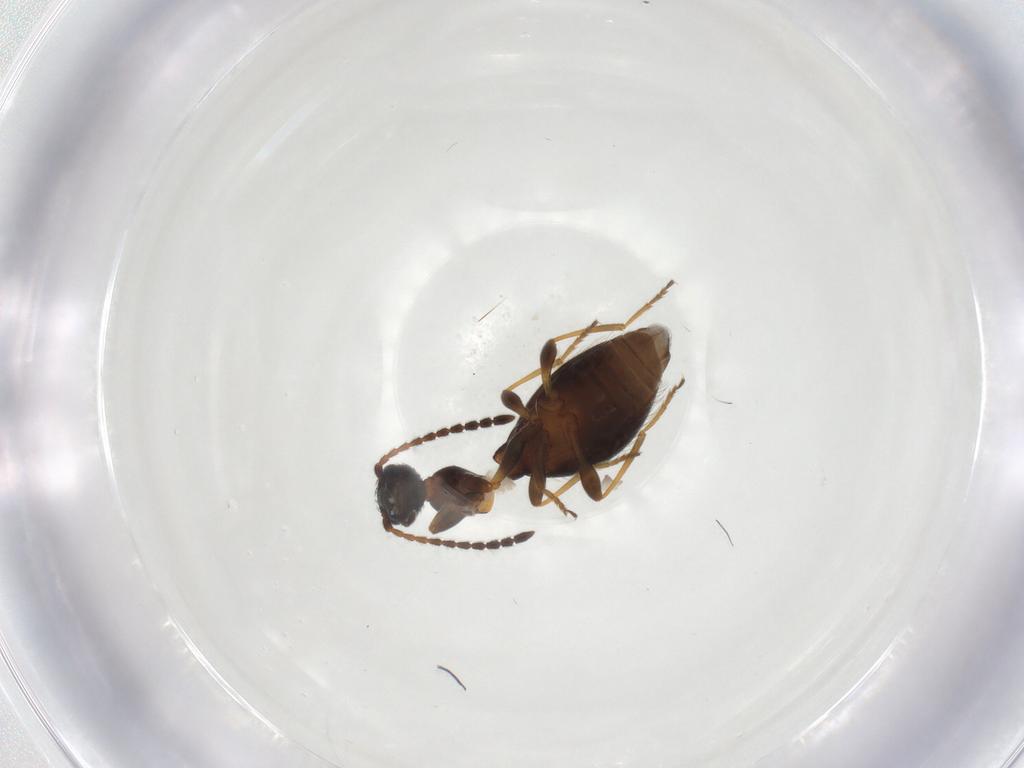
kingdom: Animalia
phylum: Arthropoda
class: Insecta
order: Coleoptera
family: Anthicidae
